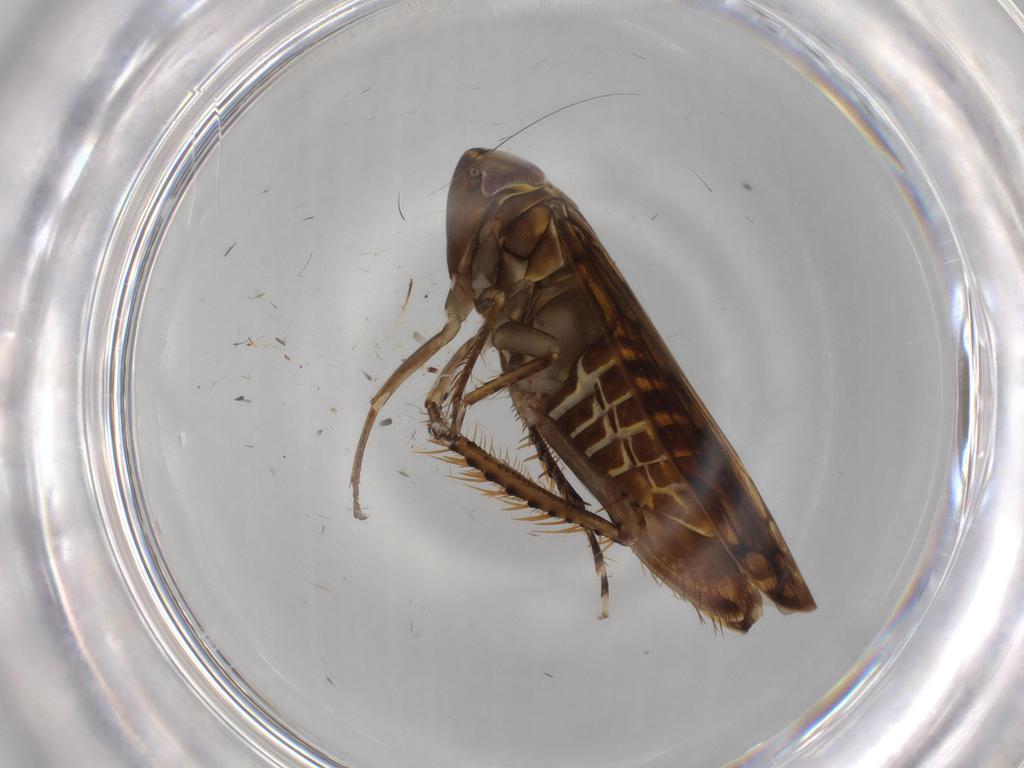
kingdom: Animalia
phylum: Arthropoda
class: Insecta
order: Hemiptera
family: Cicadellidae
